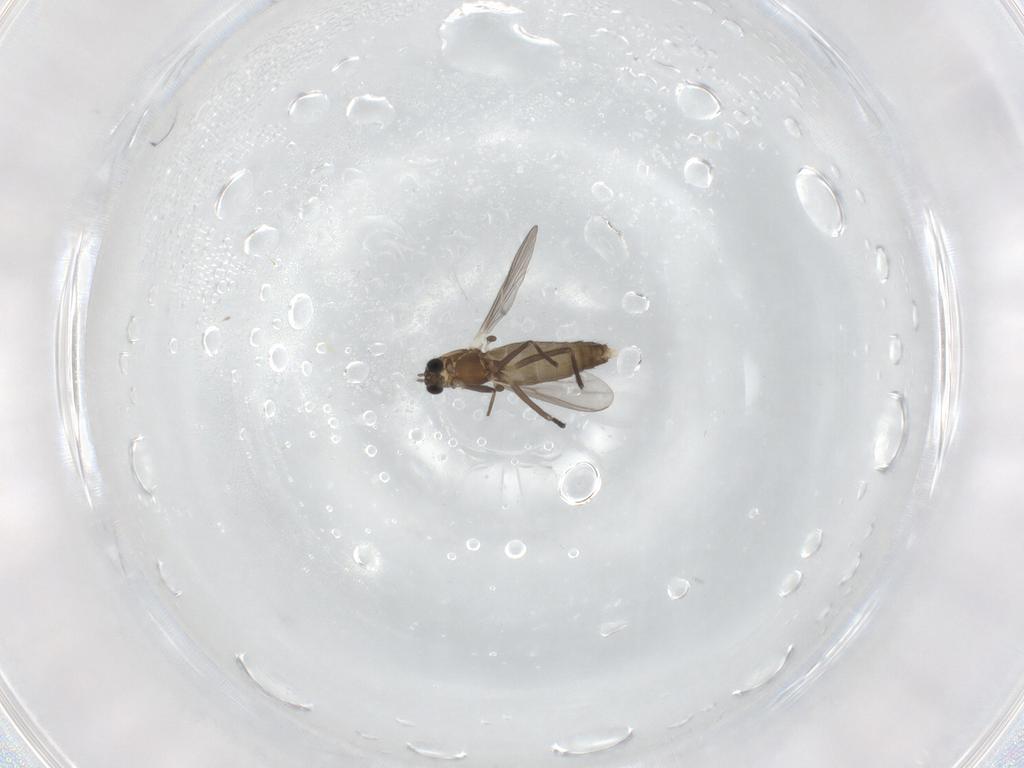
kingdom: Animalia
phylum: Arthropoda
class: Insecta
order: Diptera
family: Chironomidae
